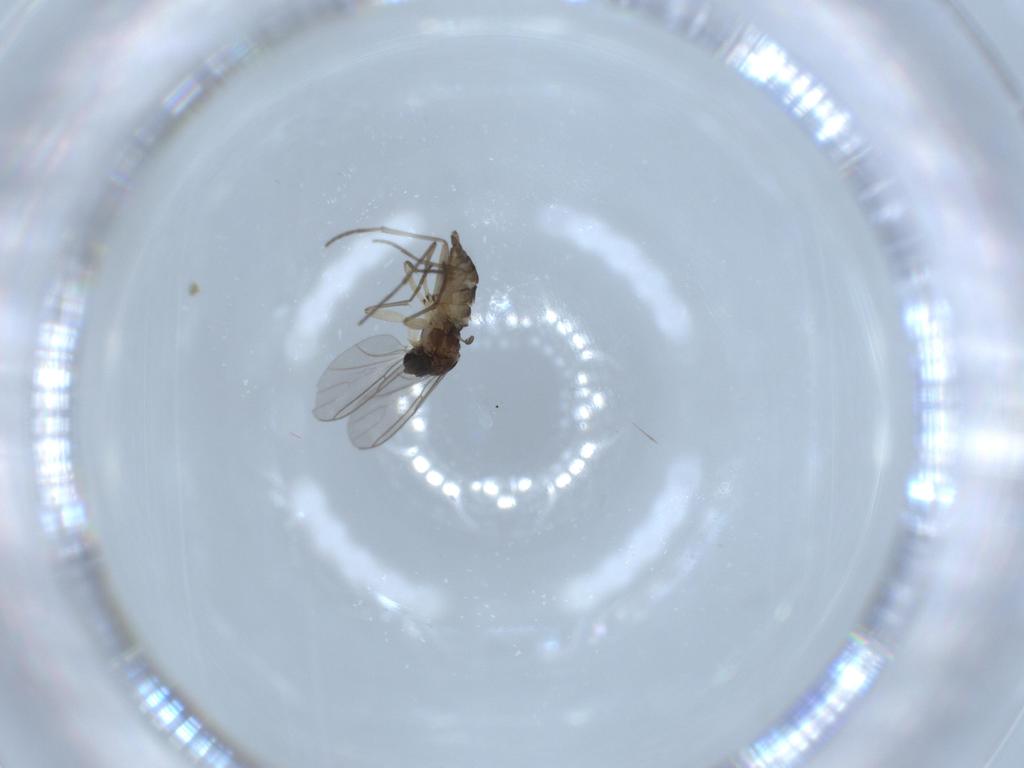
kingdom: Animalia
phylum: Arthropoda
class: Insecta
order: Diptera
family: Sciaridae
